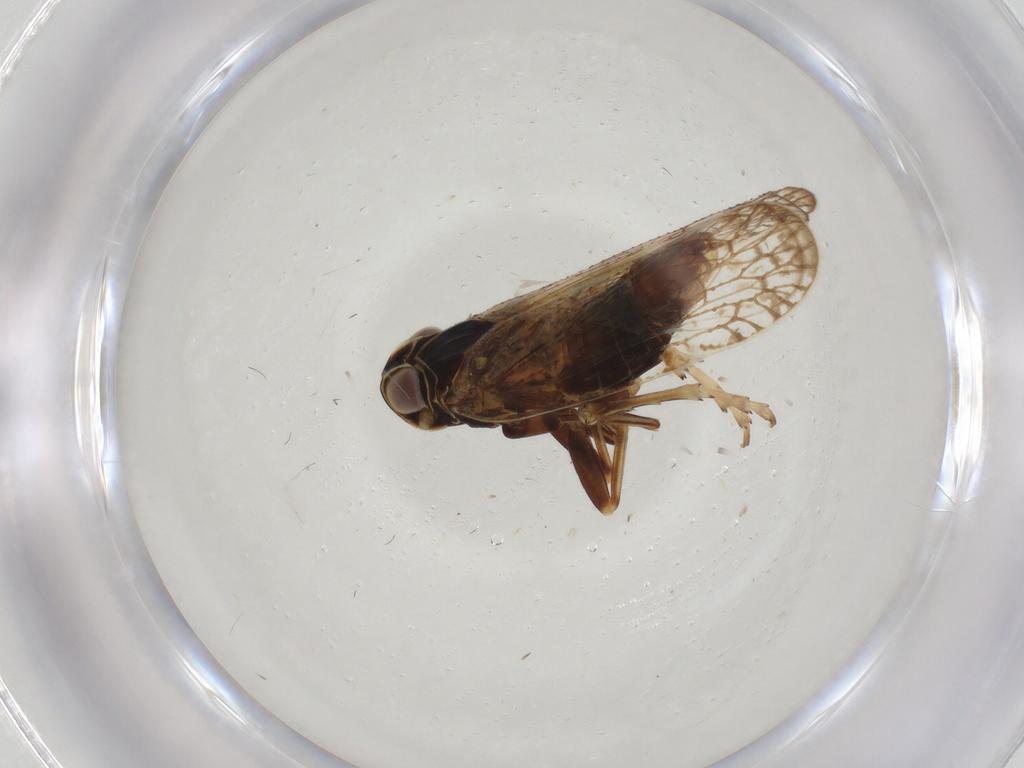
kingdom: Animalia
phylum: Arthropoda
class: Insecta
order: Hemiptera
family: Cixiidae
